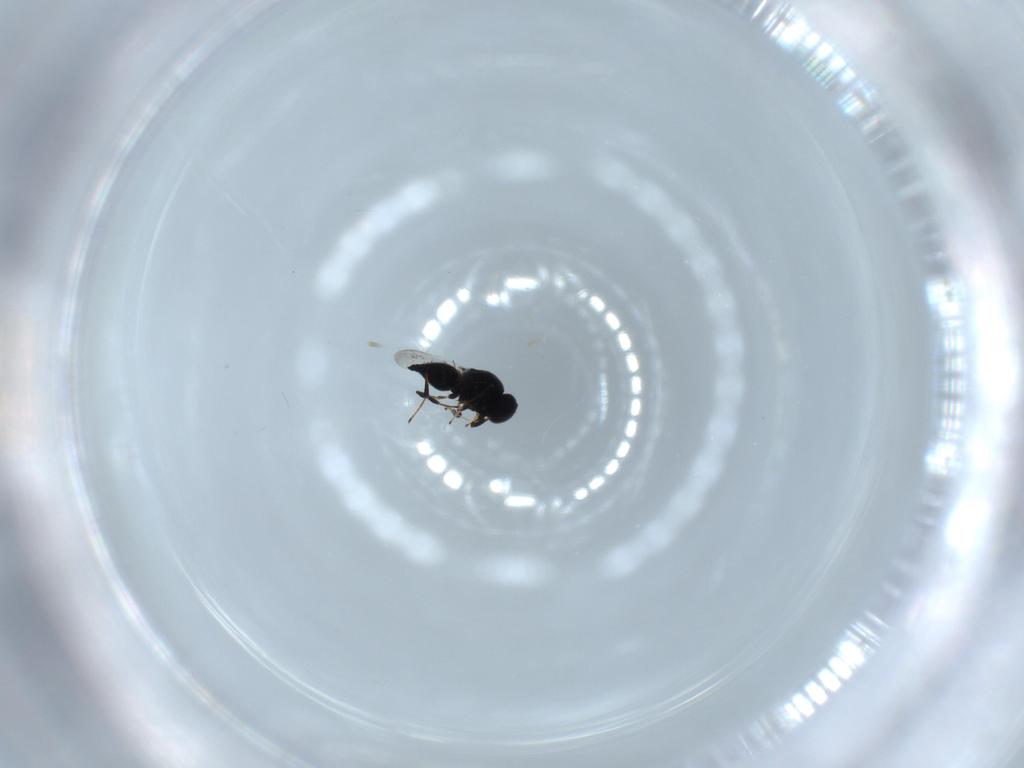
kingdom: Animalia
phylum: Arthropoda
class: Insecta
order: Hymenoptera
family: Platygastridae
